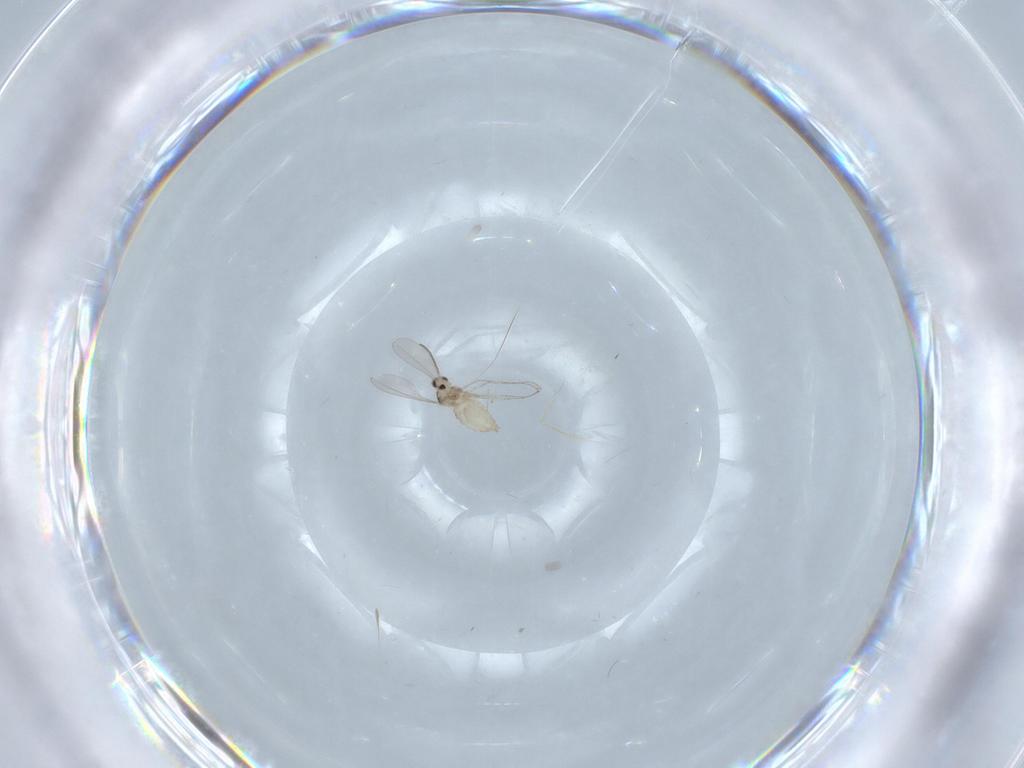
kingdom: Animalia
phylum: Arthropoda
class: Insecta
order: Diptera
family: Cecidomyiidae
